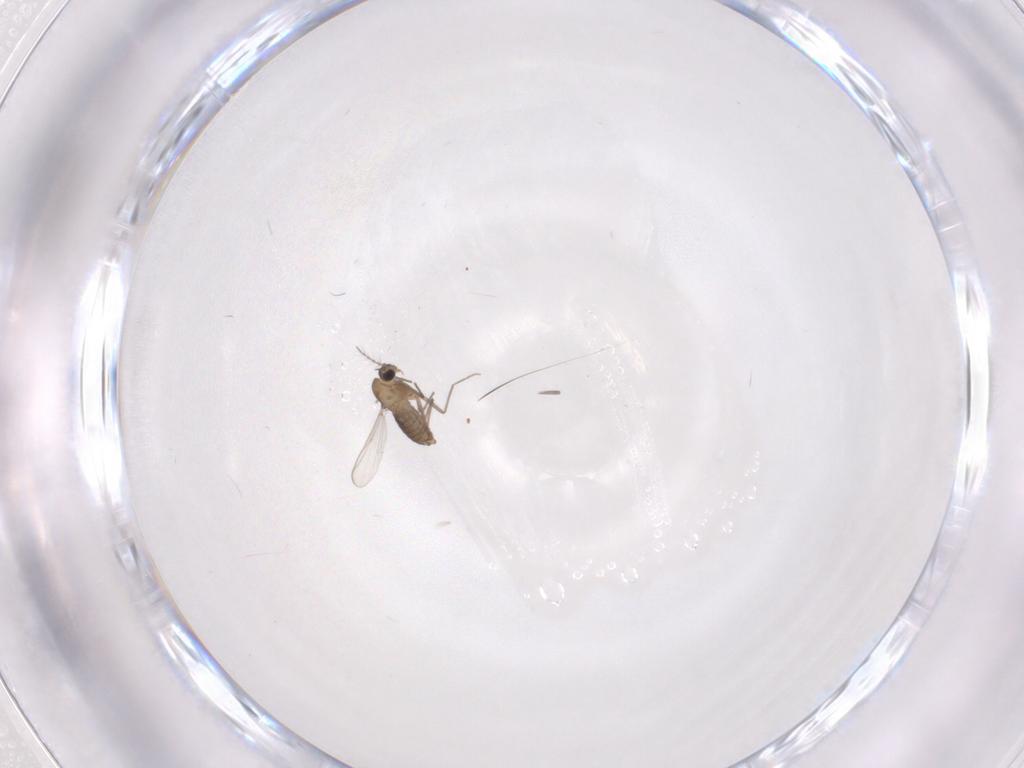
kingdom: Animalia
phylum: Arthropoda
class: Insecta
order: Diptera
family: Chironomidae
